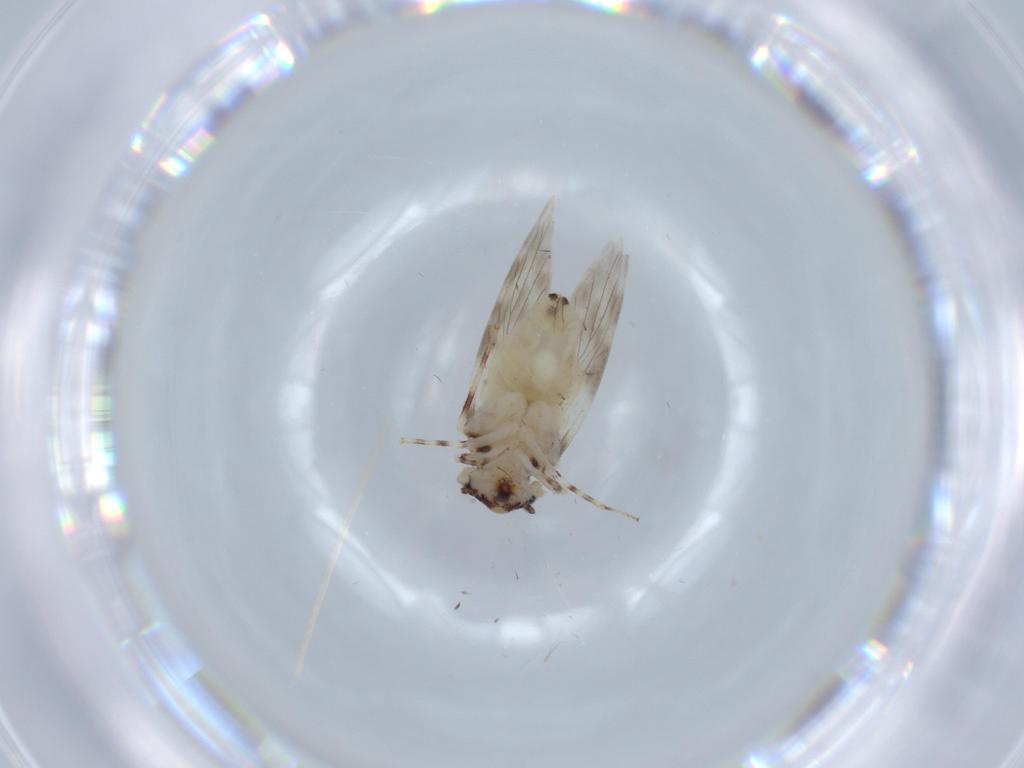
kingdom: Animalia
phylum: Arthropoda
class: Insecta
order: Psocodea
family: Lepidopsocidae
